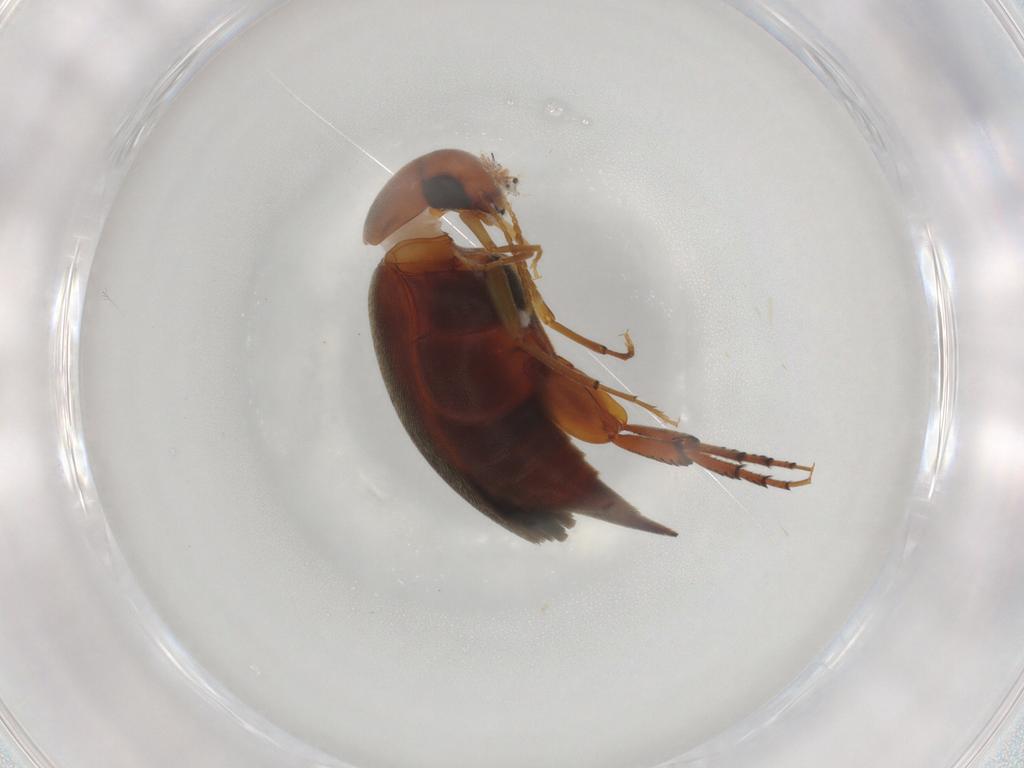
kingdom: Animalia
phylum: Arthropoda
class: Insecta
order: Coleoptera
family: Mordellidae
